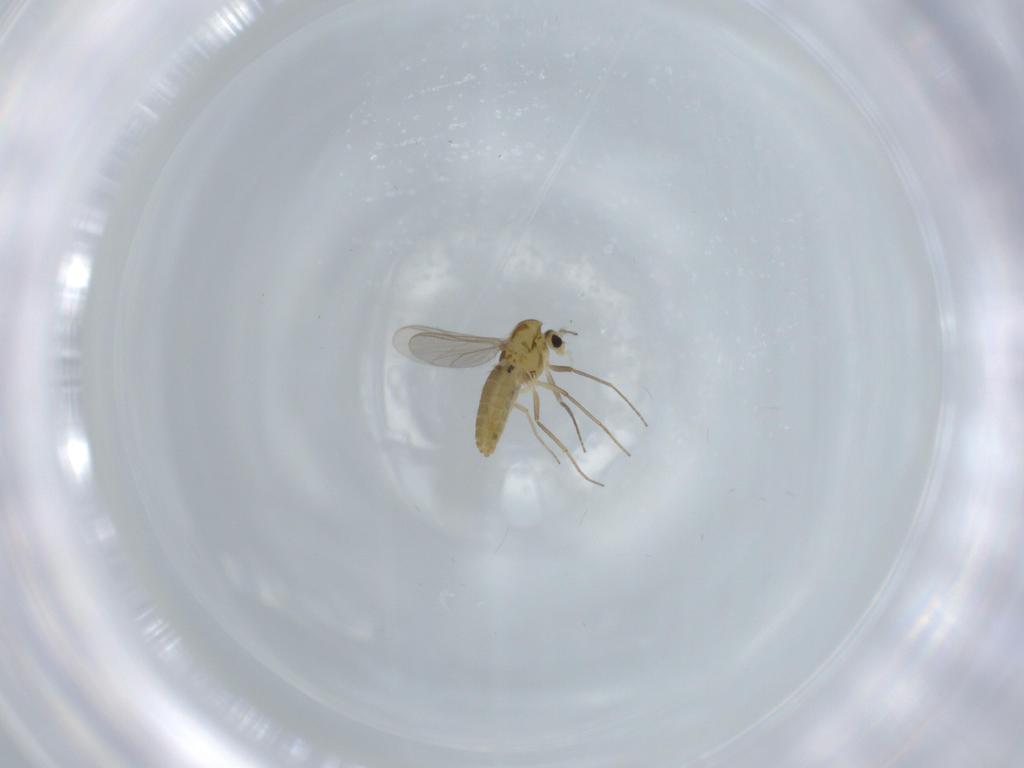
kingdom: Animalia
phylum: Arthropoda
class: Insecta
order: Diptera
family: Chironomidae
